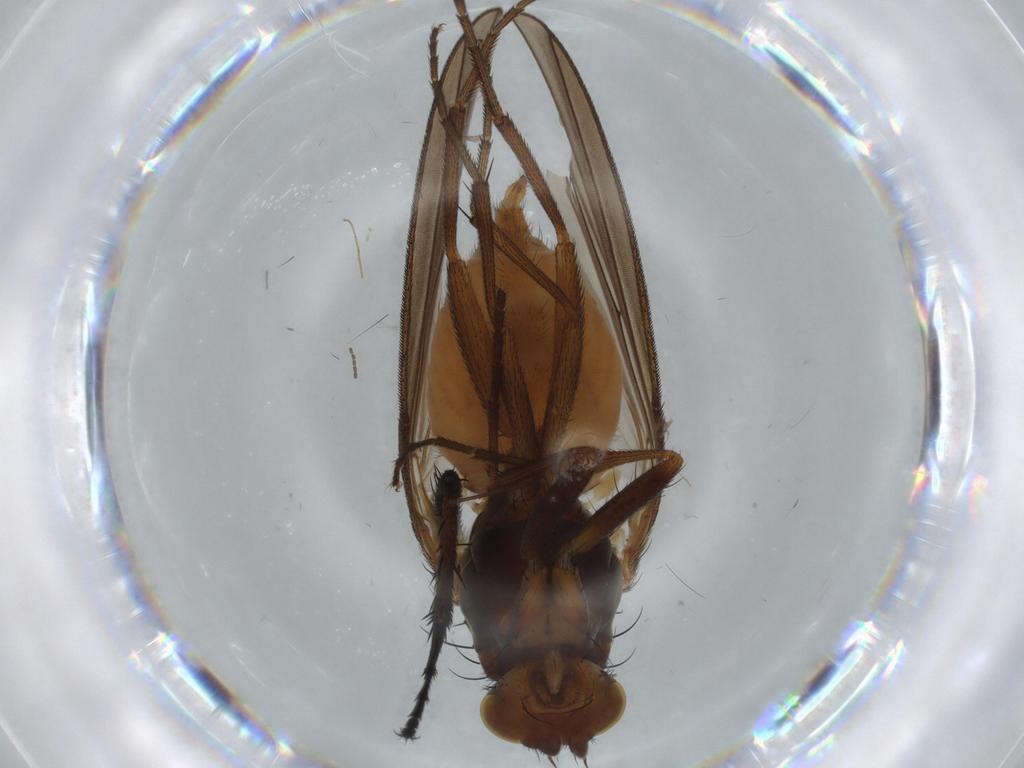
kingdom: Animalia
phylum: Arthropoda
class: Insecta
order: Diptera
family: Heleomyzidae
